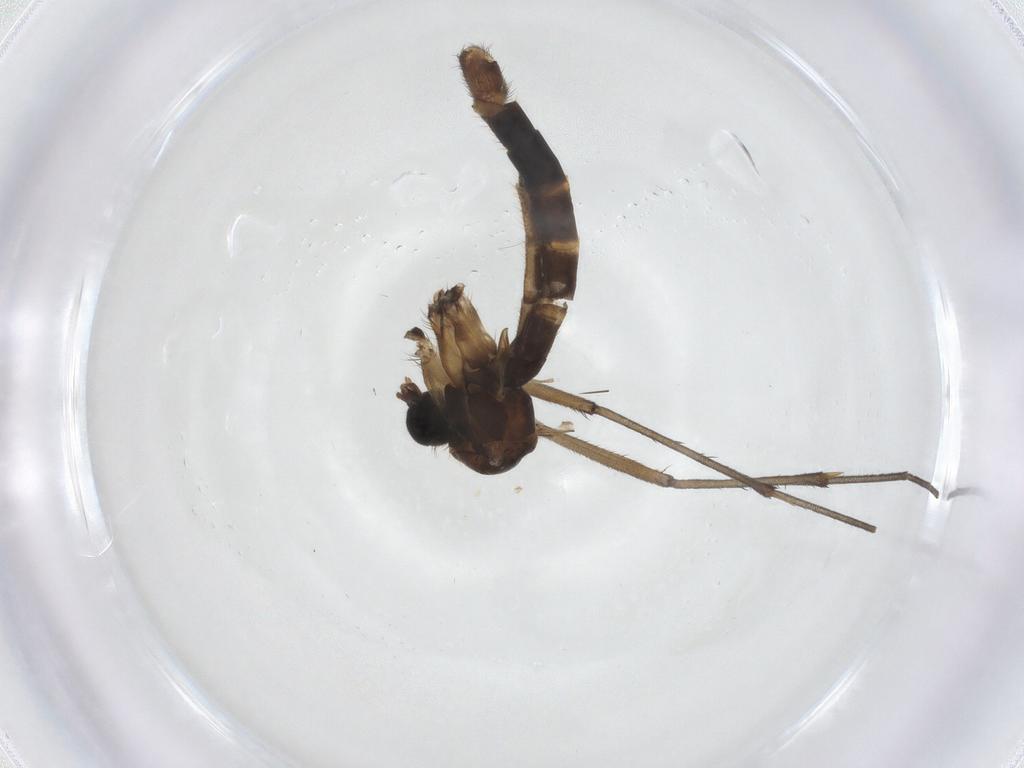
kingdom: Animalia
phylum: Arthropoda
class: Insecta
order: Diptera
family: Mycetophilidae
